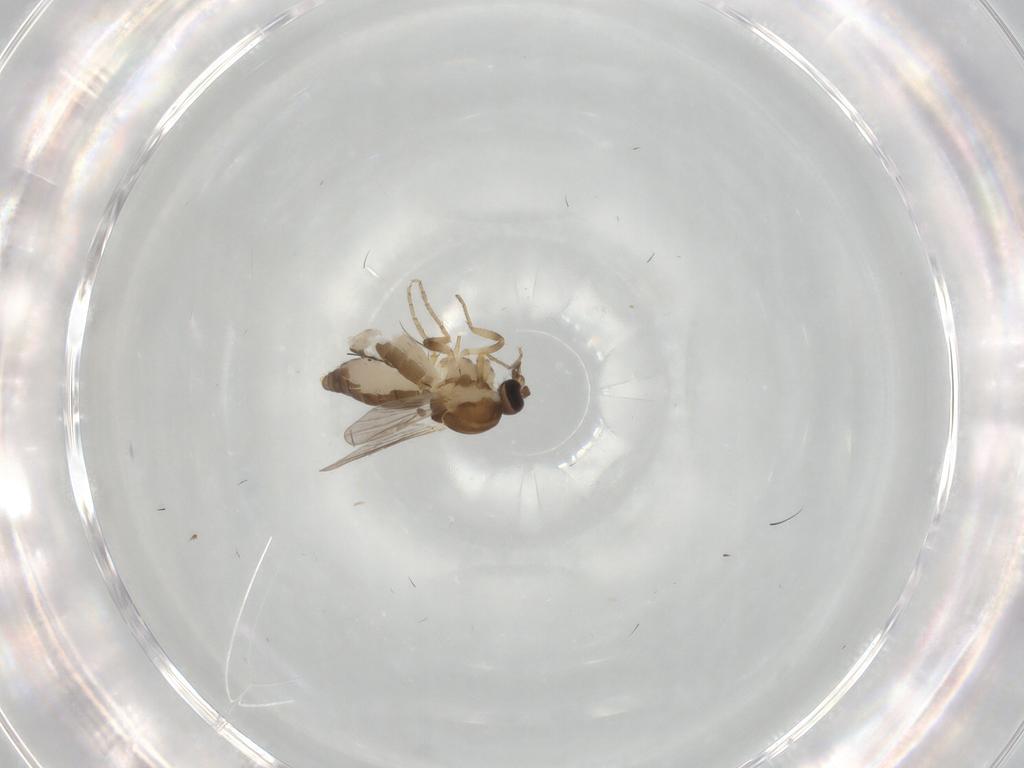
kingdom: Animalia
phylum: Arthropoda
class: Insecta
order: Diptera
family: Ceratopogonidae
